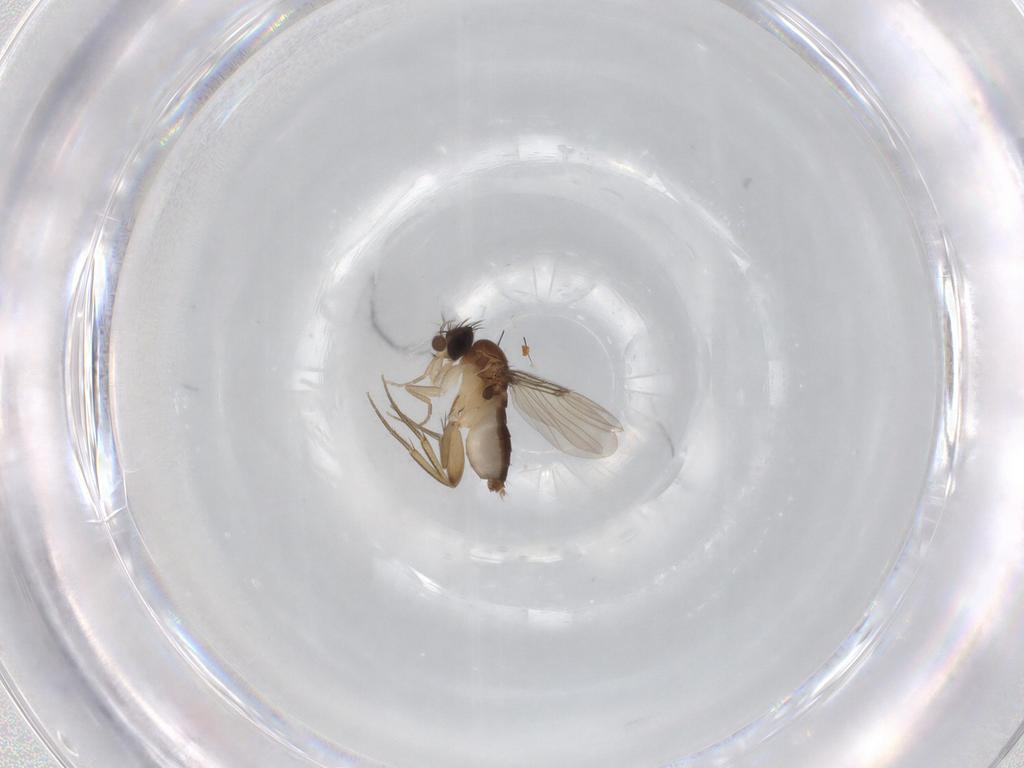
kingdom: Animalia
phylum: Arthropoda
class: Insecta
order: Diptera
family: Phoridae
